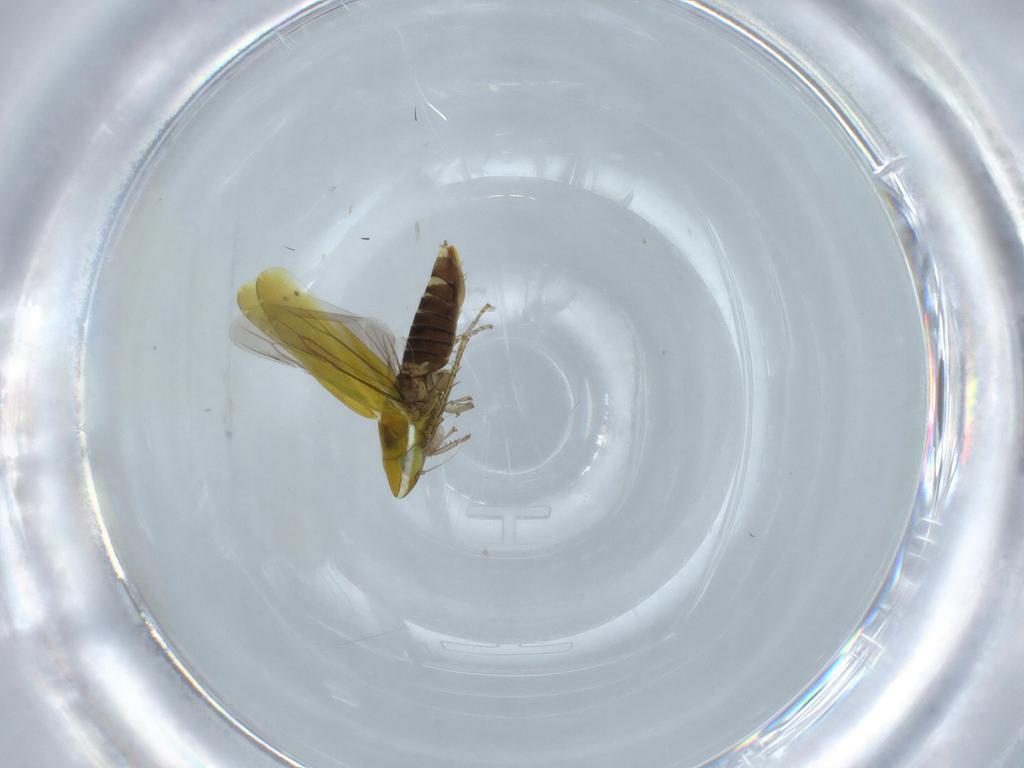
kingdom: Animalia
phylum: Arthropoda
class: Insecta
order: Hemiptera
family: Cicadellidae
